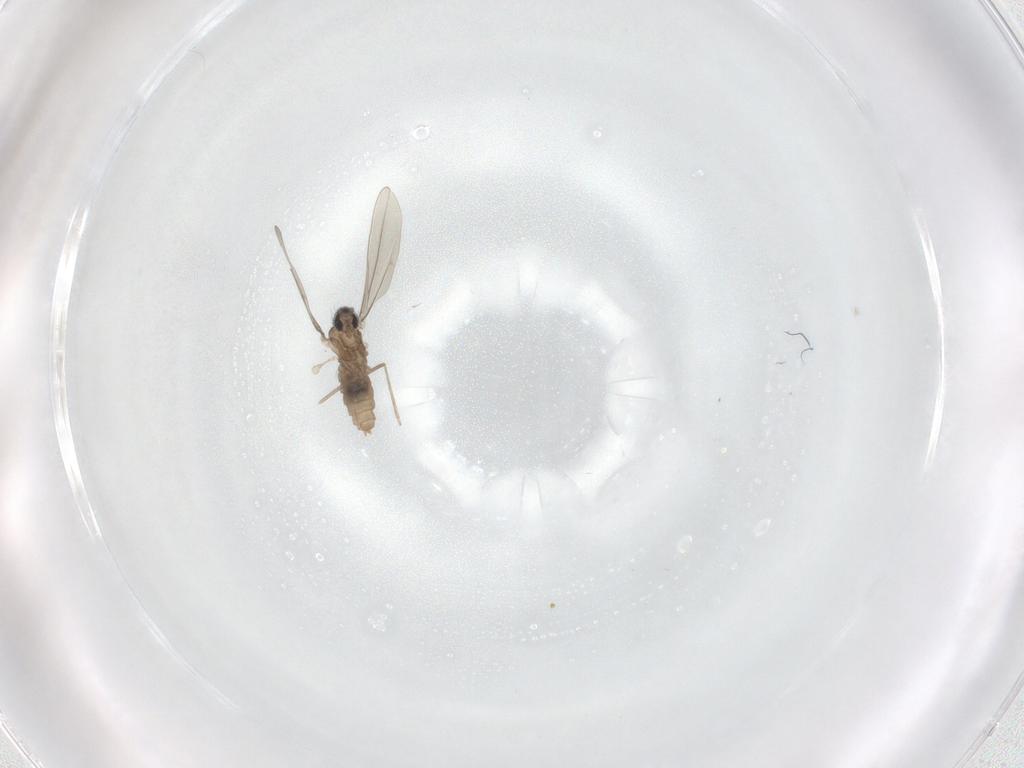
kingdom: Animalia
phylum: Arthropoda
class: Insecta
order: Diptera
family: Cecidomyiidae
